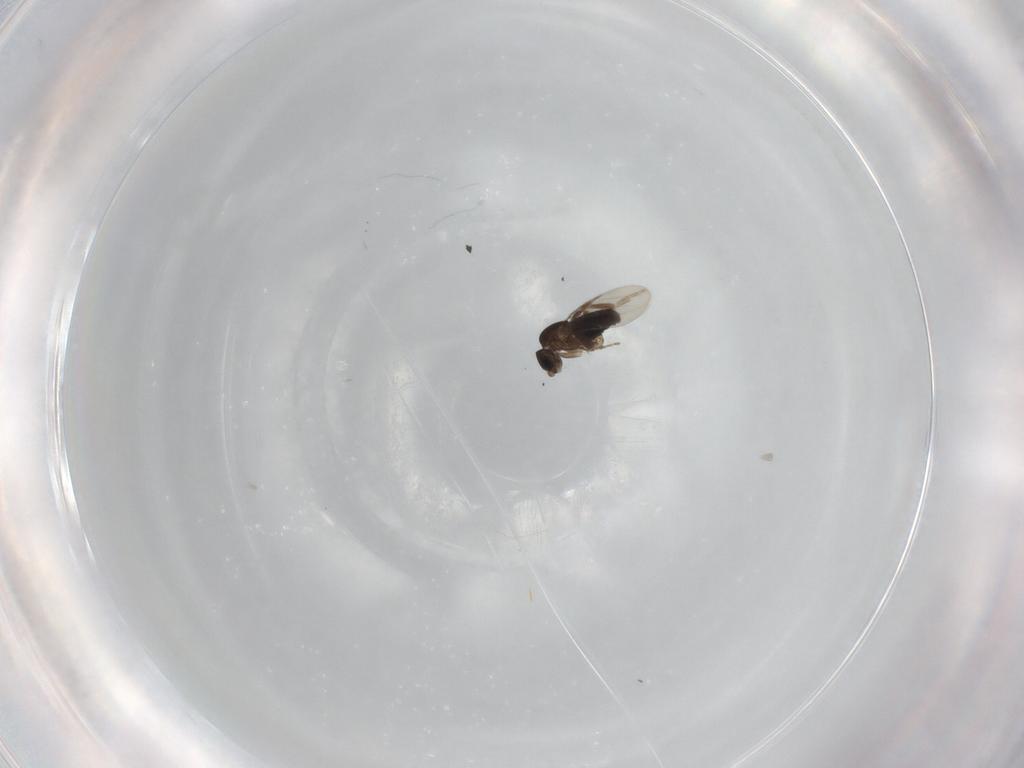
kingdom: Animalia
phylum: Arthropoda
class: Insecta
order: Diptera
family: Phoridae
